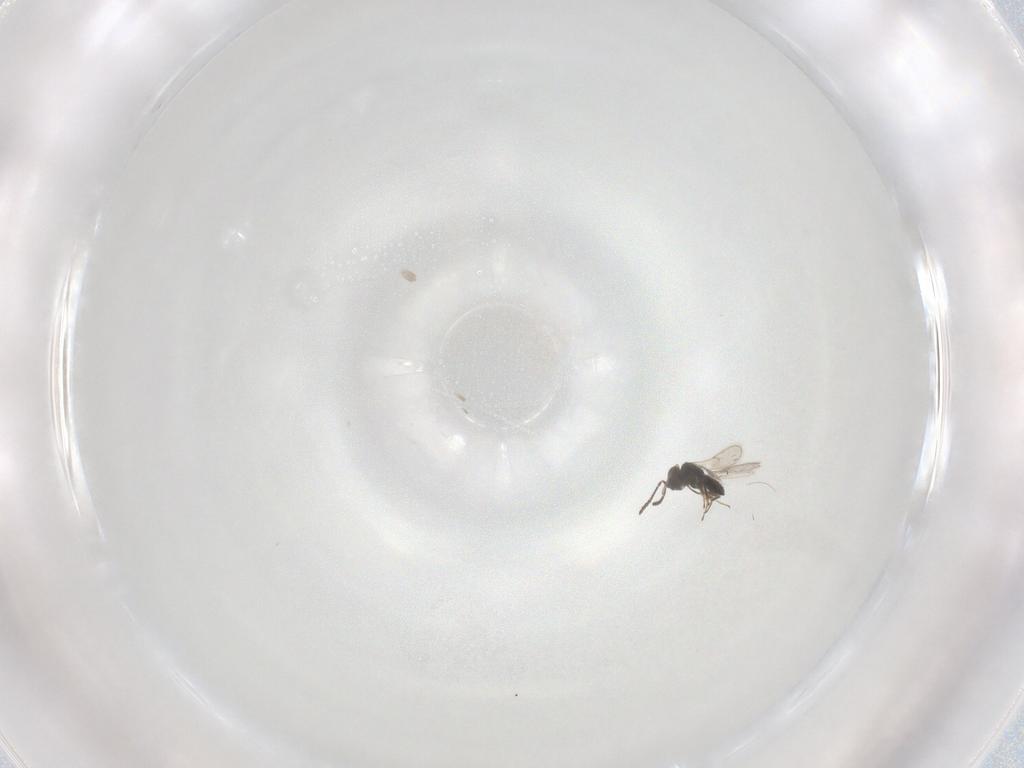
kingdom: Animalia
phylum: Arthropoda
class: Insecta
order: Hymenoptera
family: Scelionidae
